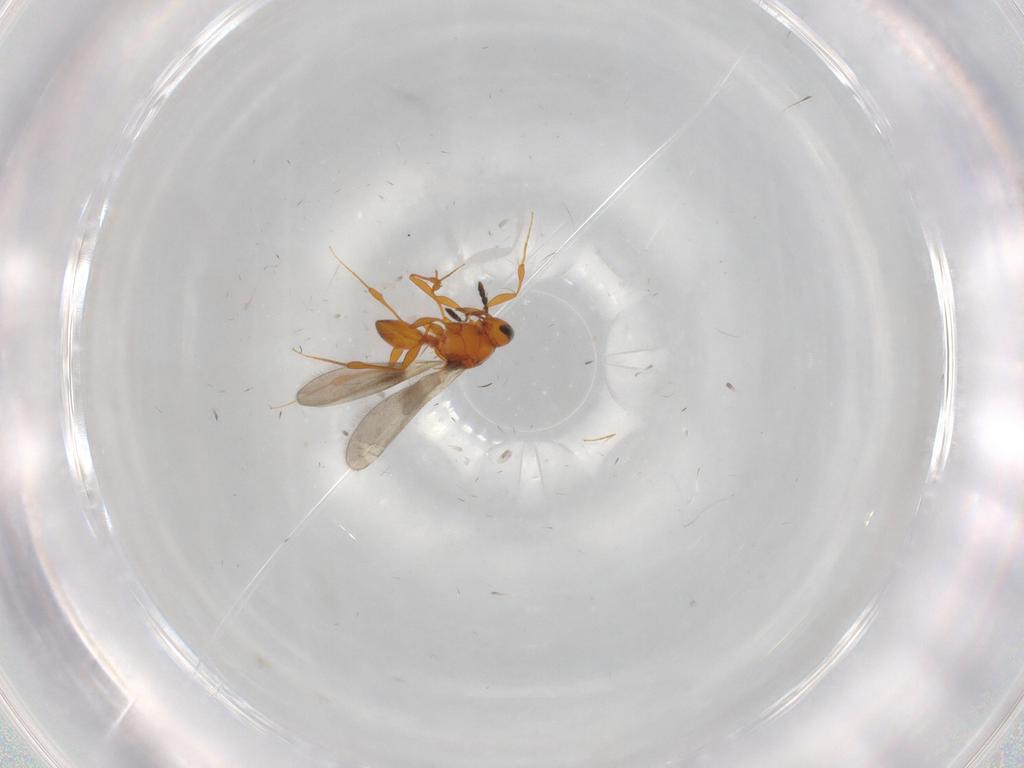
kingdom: Animalia
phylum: Arthropoda
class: Insecta
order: Hymenoptera
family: Platygastridae
